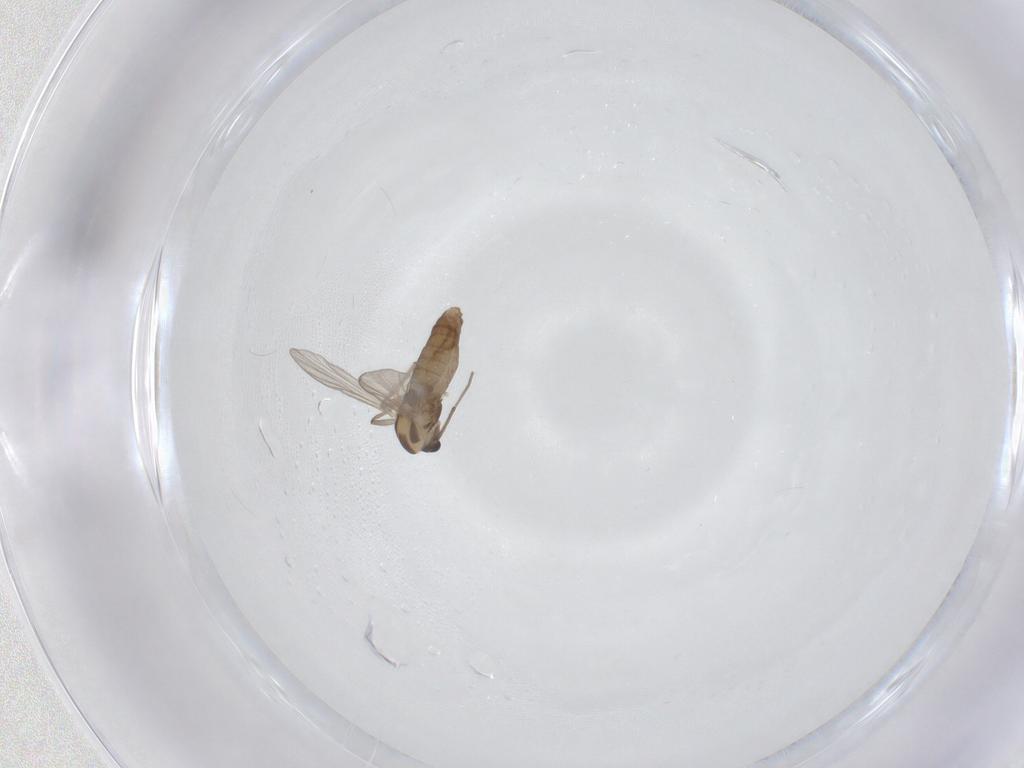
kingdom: Animalia
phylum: Arthropoda
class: Insecta
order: Diptera
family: Chironomidae
